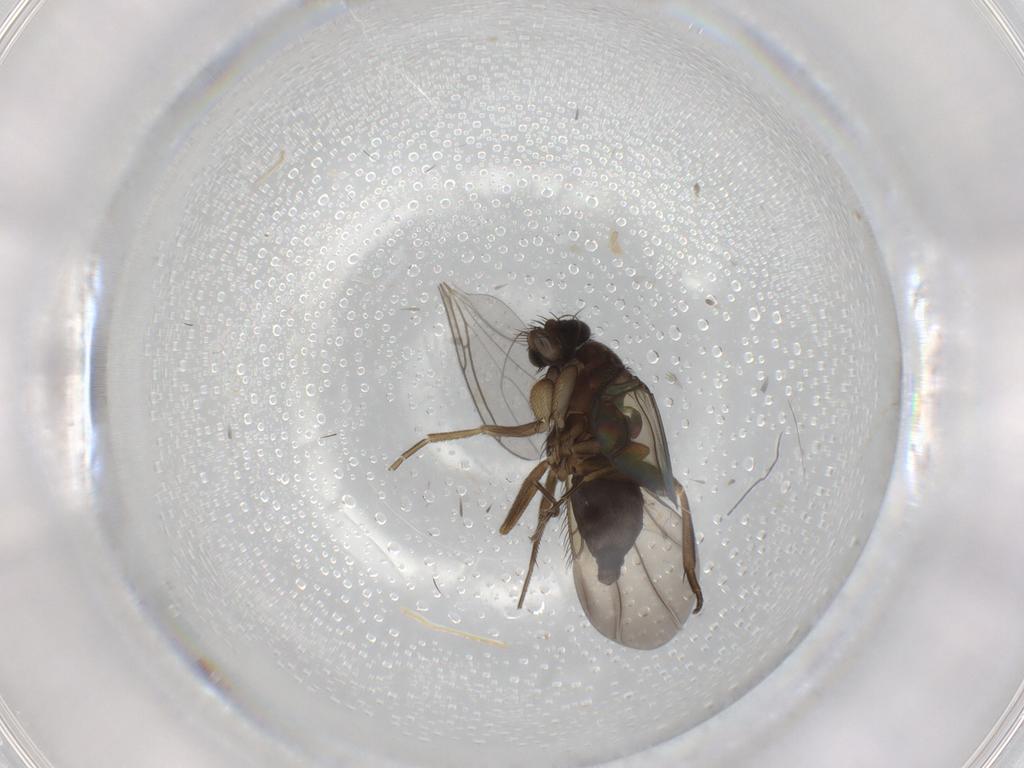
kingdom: Animalia
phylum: Arthropoda
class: Insecta
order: Diptera
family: Phoridae
